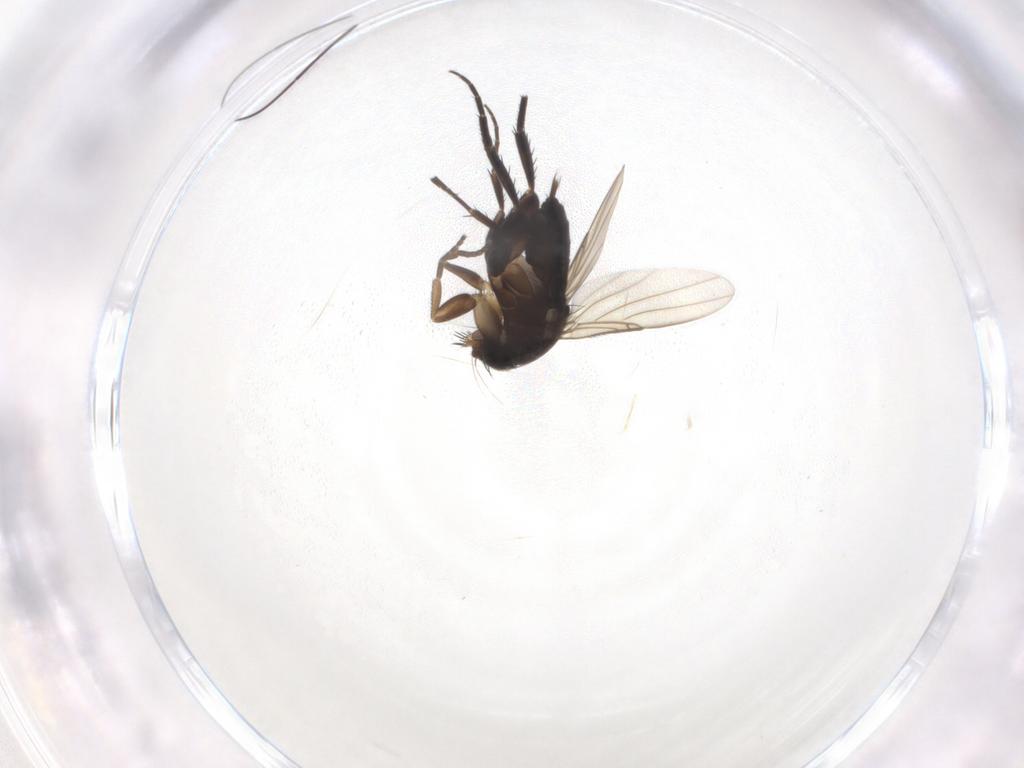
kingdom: Animalia
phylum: Arthropoda
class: Insecta
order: Diptera
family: Phoridae
